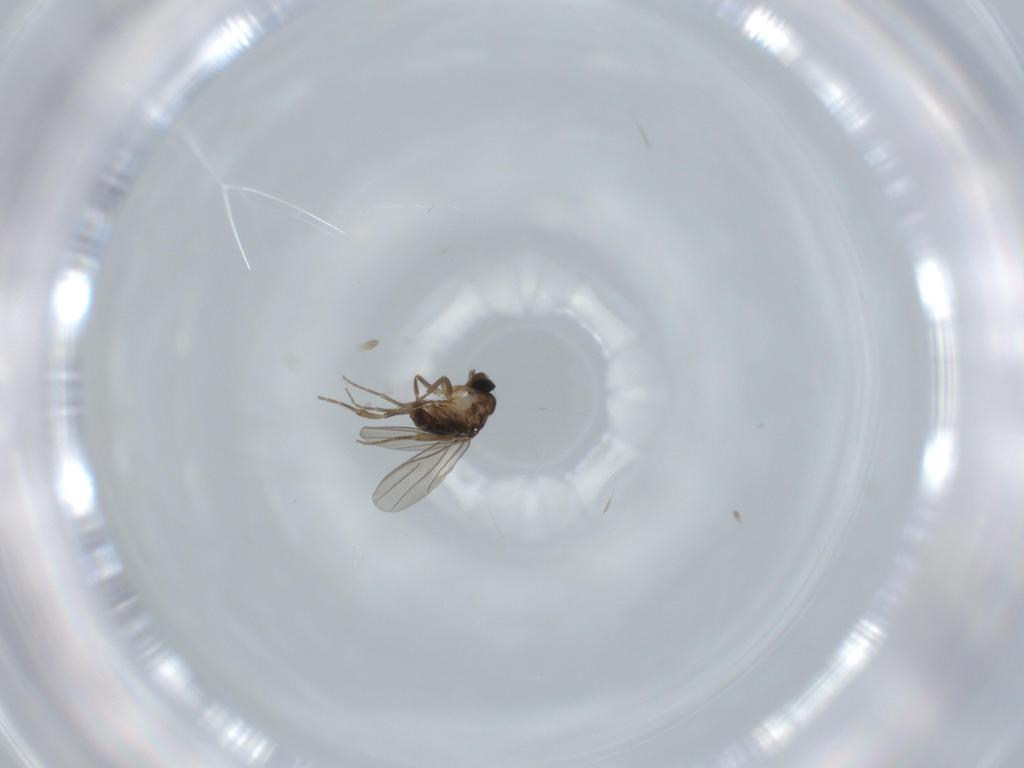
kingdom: Animalia
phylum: Arthropoda
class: Insecta
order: Diptera
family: Phoridae
